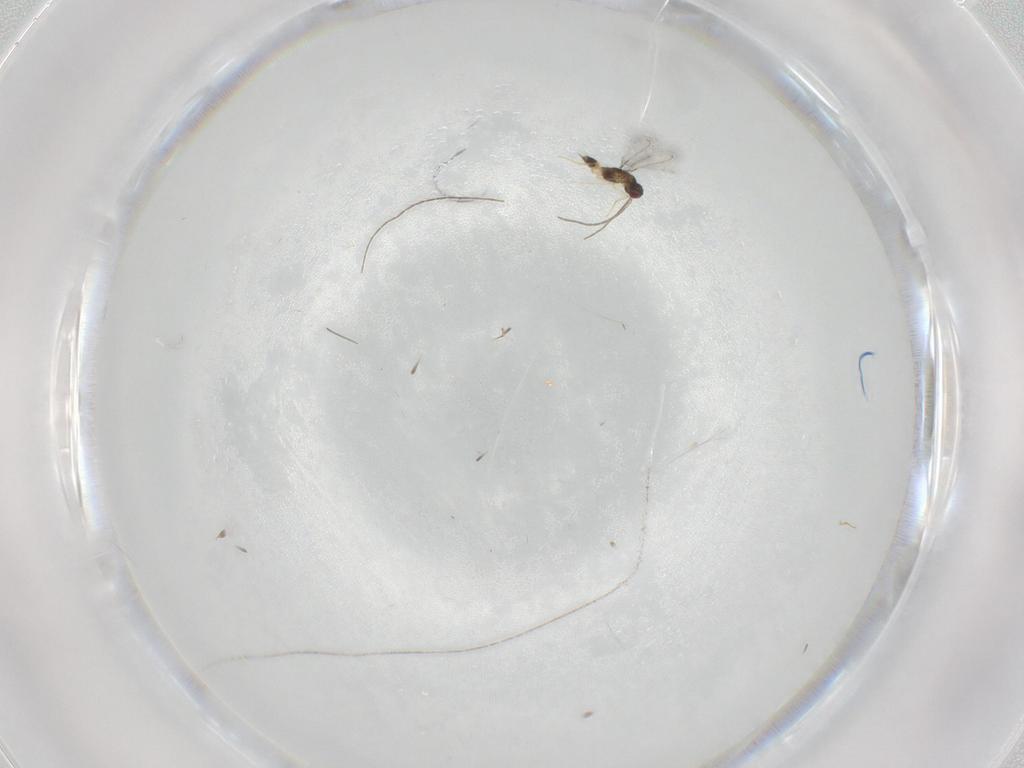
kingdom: Animalia
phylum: Arthropoda
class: Insecta
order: Hymenoptera
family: Mymaridae
